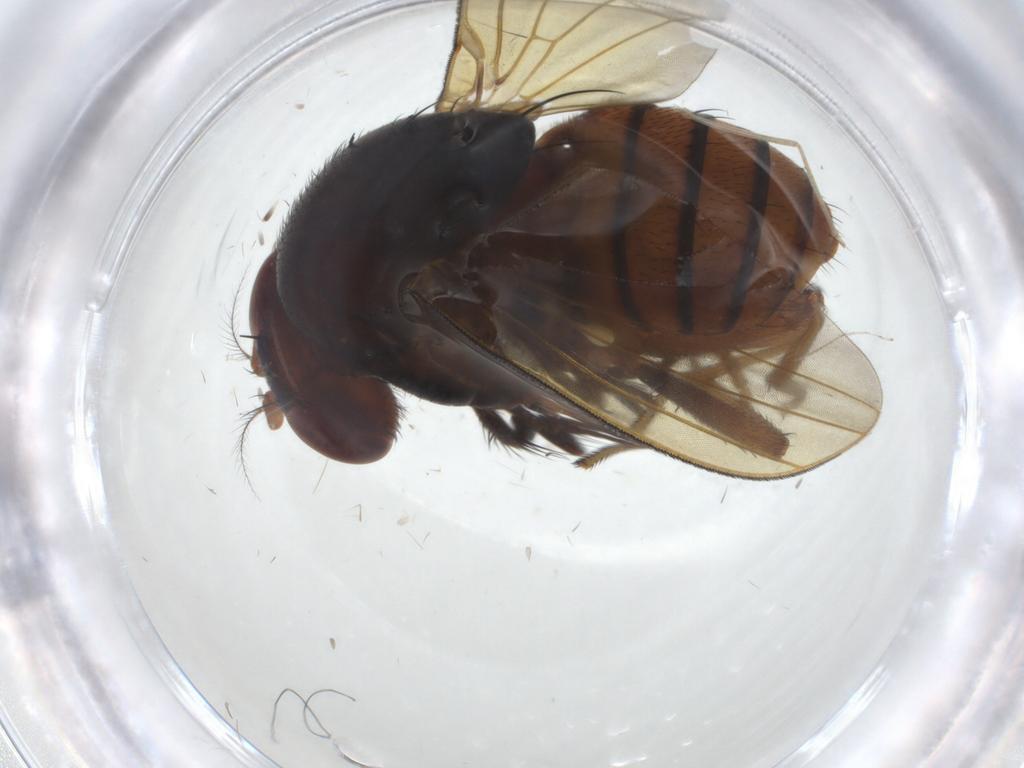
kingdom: Animalia
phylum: Arthropoda
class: Insecta
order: Diptera
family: Lauxaniidae
